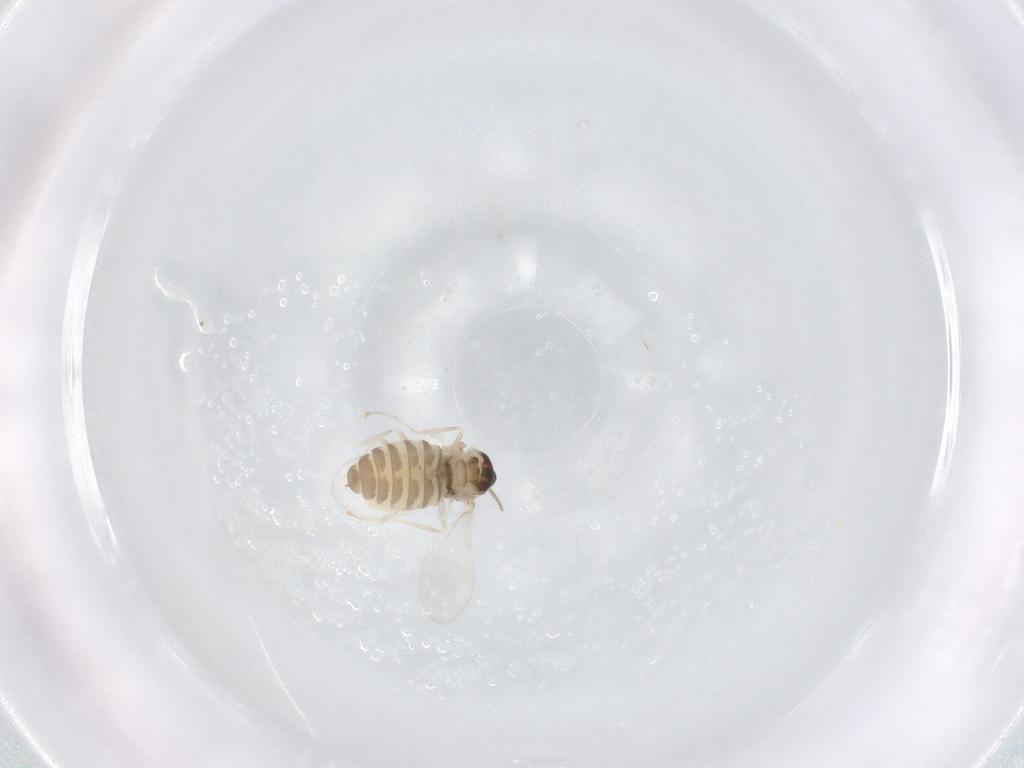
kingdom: Animalia
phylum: Arthropoda
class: Insecta
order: Diptera
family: Cecidomyiidae
